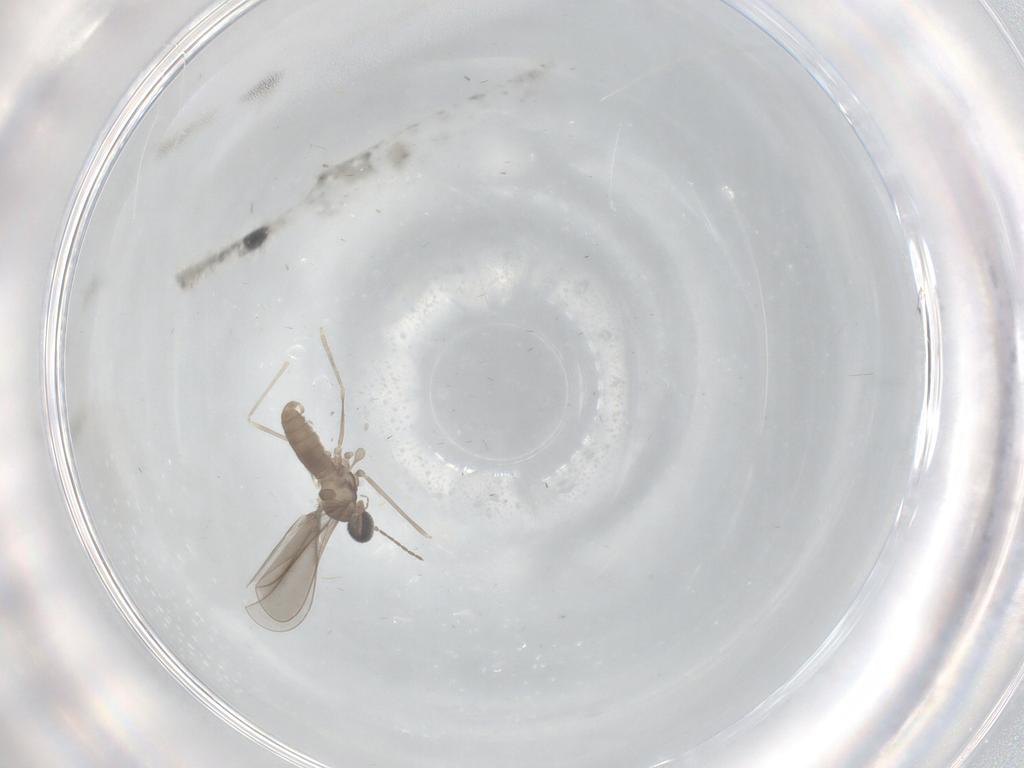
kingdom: Animalia
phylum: Arthropoda
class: Insecta
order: Diptera
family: Cecidomyiidae
